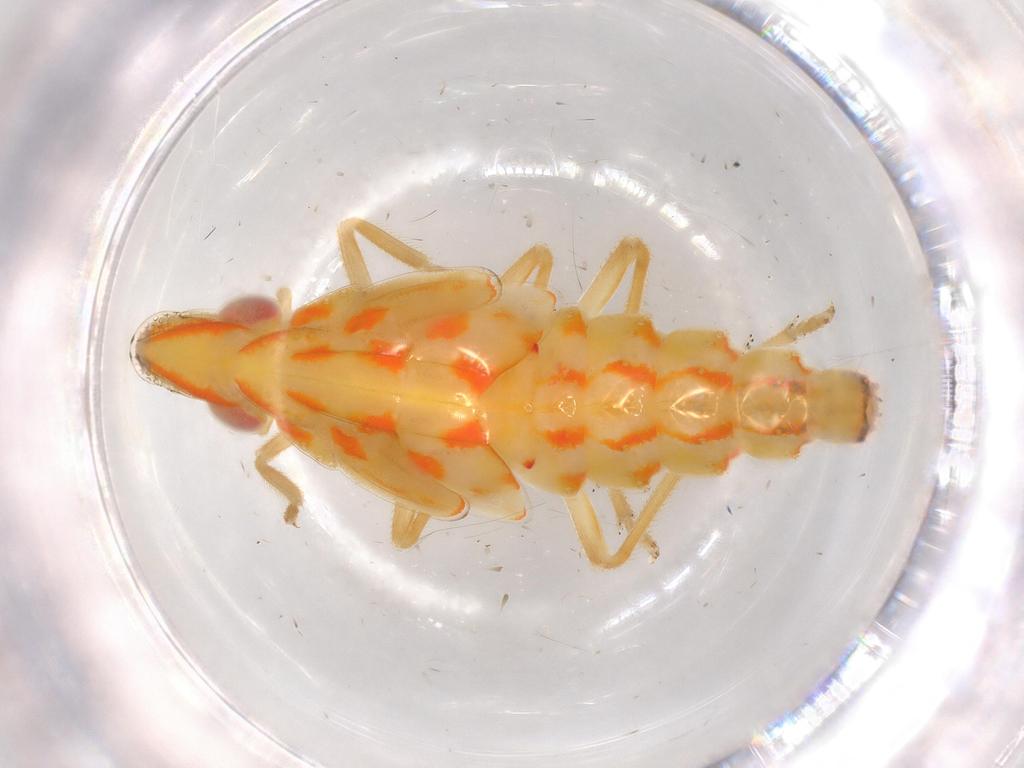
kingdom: Animalia
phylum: Arthropoda
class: Insecta
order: Hemiptera
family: Tropiduchidae
